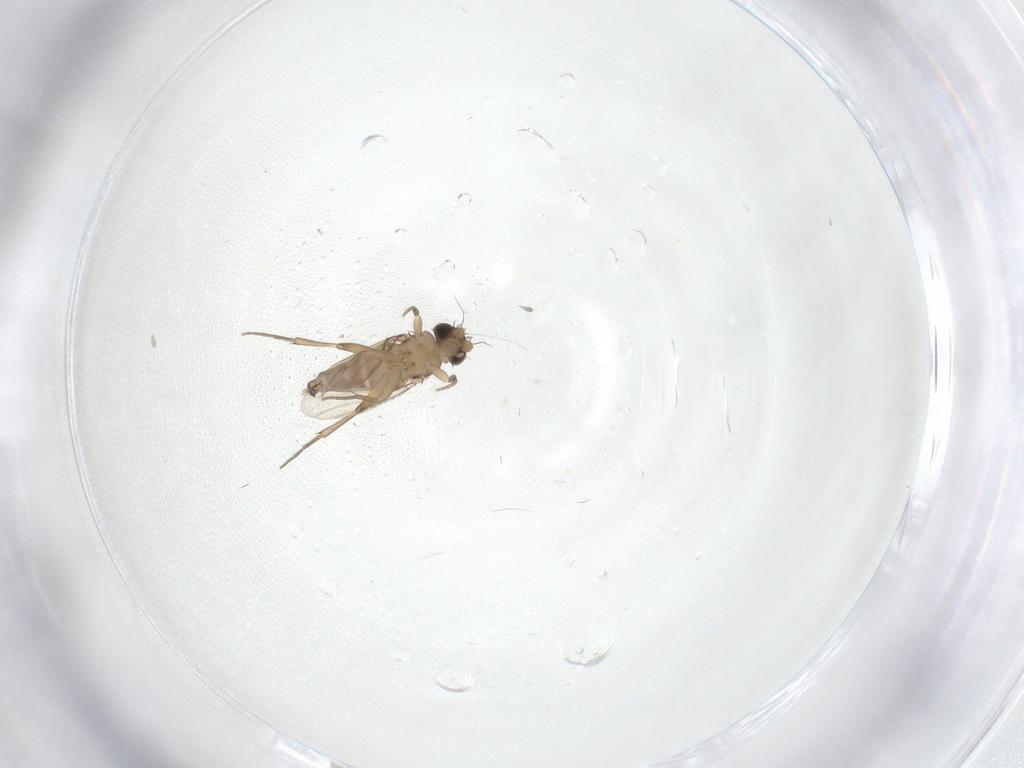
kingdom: Animalia
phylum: Arthropoda
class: Insecta
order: Diptera
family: Phoridae
